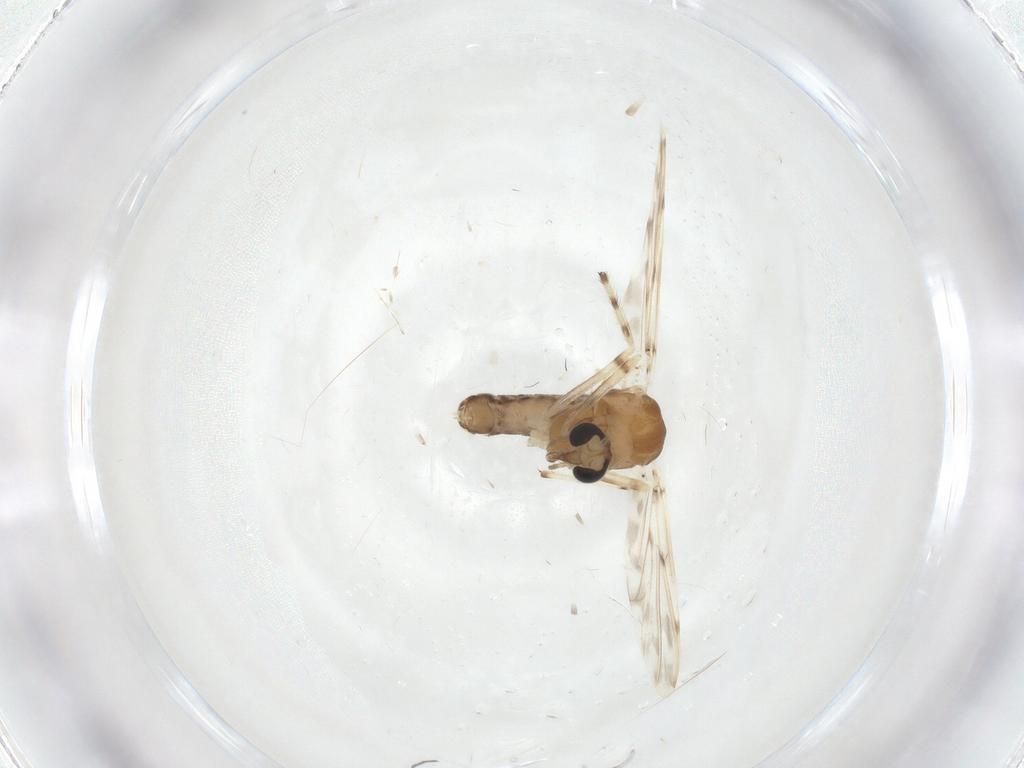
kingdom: Animalia
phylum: Arthropoda
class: Insecta
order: Diptera
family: Chironomidae
